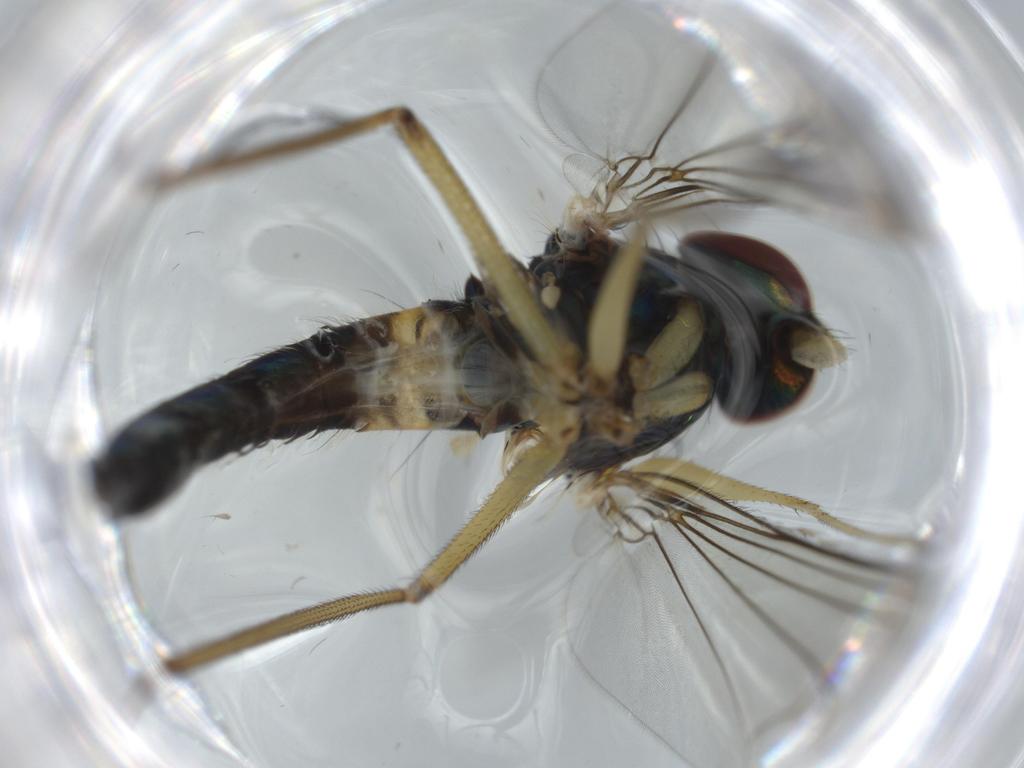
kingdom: Animalia
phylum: Arthropoda
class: Insecta
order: Diptera
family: Dolichopodidae
